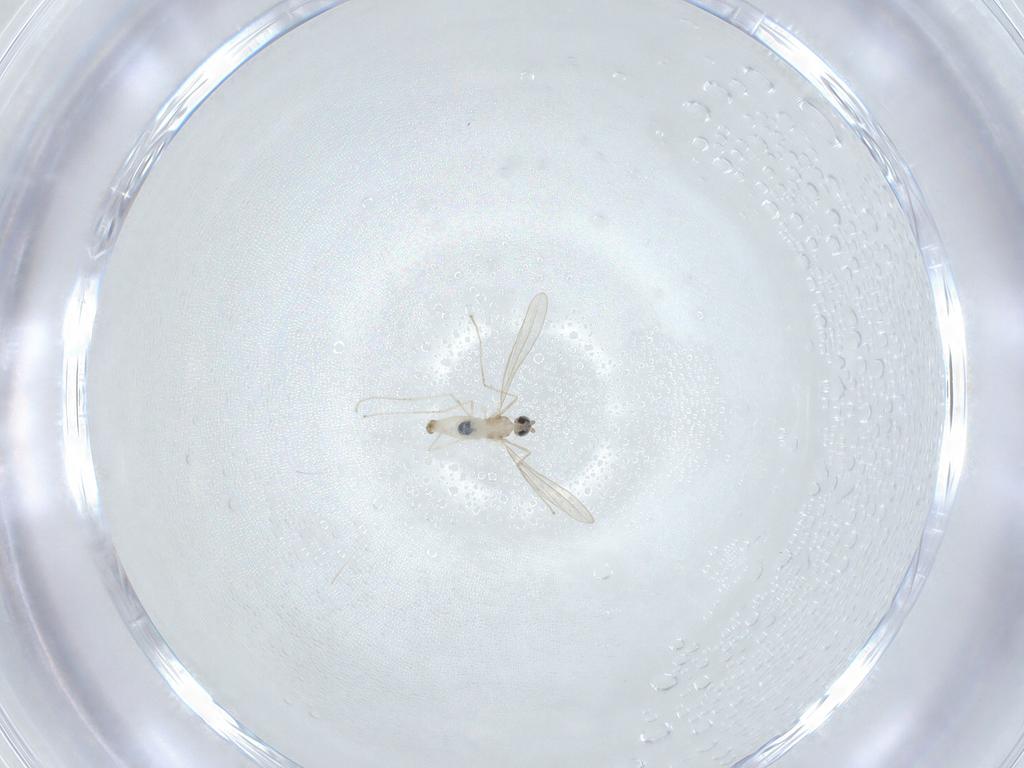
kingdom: Animalia
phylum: Arthropoda
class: Insecta
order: Diptera
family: Cecidomyiidae
